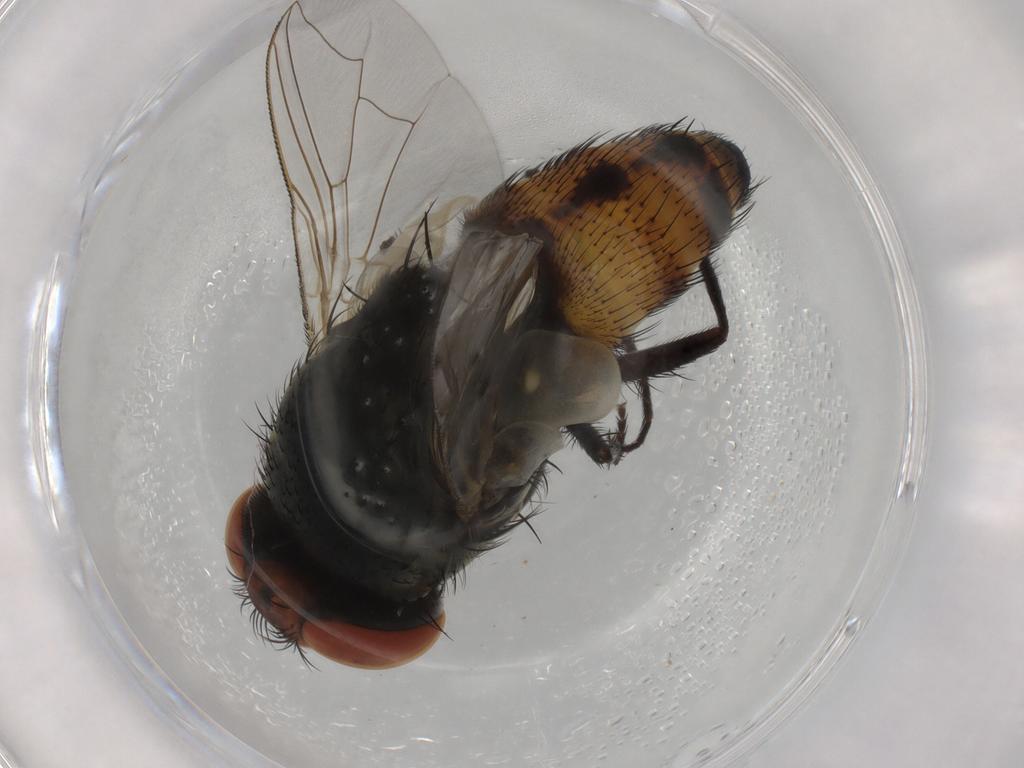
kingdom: Animalia
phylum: Arthropoda
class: Insecta
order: Diptera
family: Sarcophagidae
